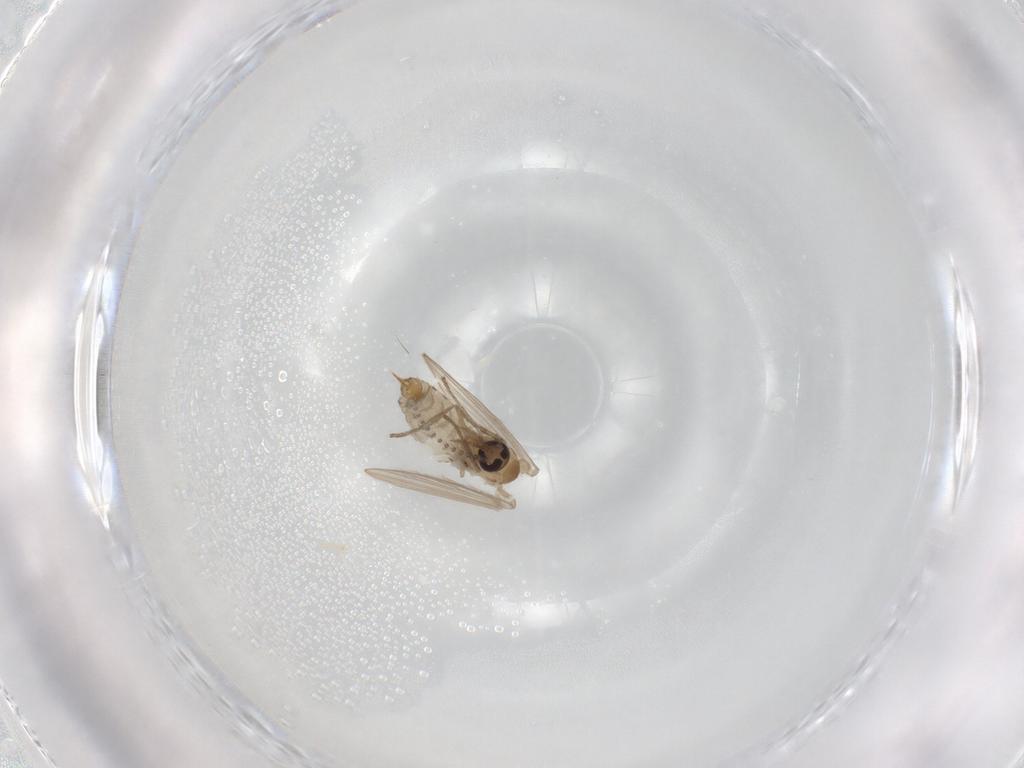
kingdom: Animalia
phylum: Arthropoda
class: Insecta
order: Diptera
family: Psychodidae
